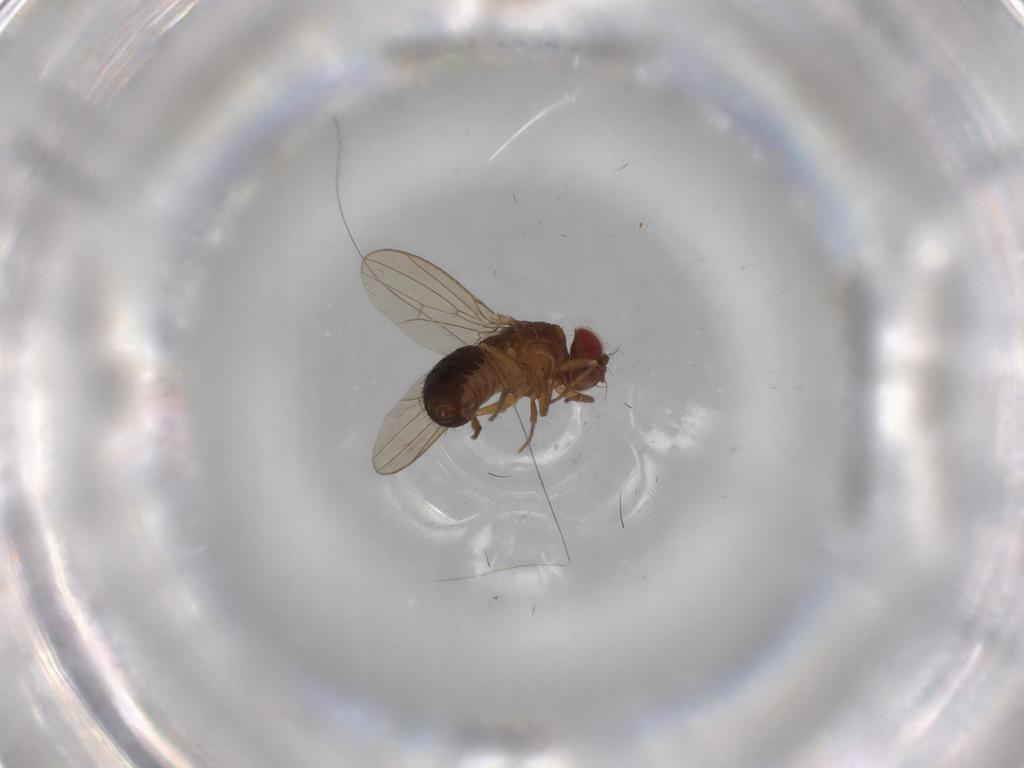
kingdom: Animalia
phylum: Arthropoda
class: Insecta
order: Diptera
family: Drosophilidae
